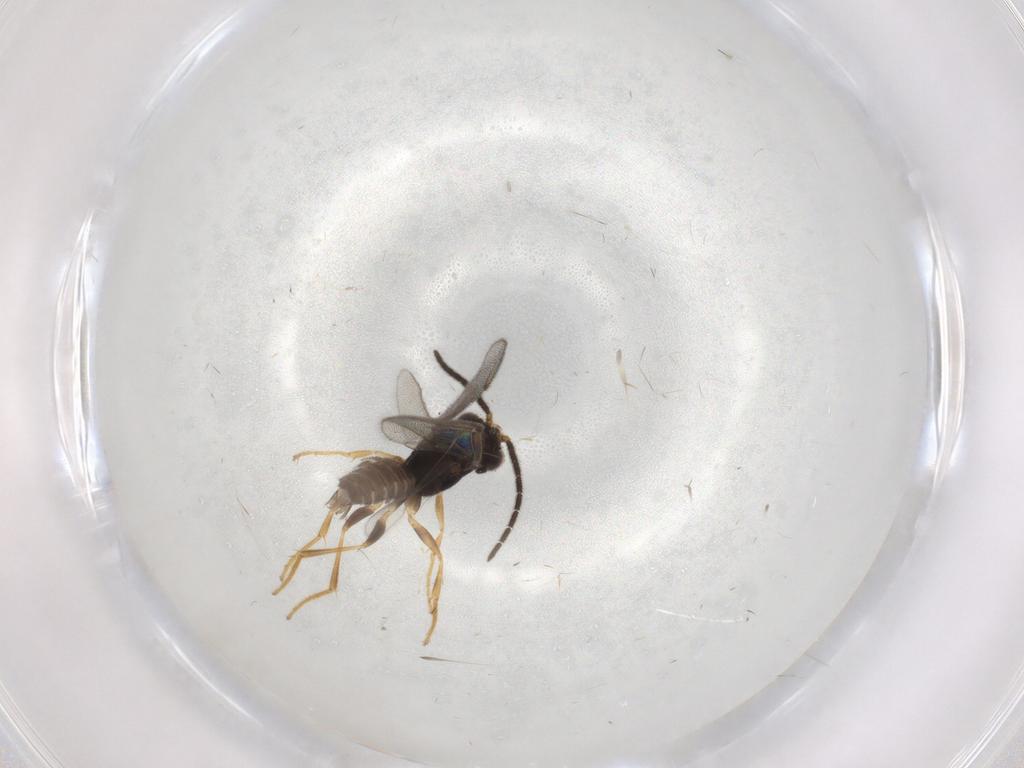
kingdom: Animalia
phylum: Arthropoda
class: Insecta
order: Hymenoptera
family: Dryinidae
